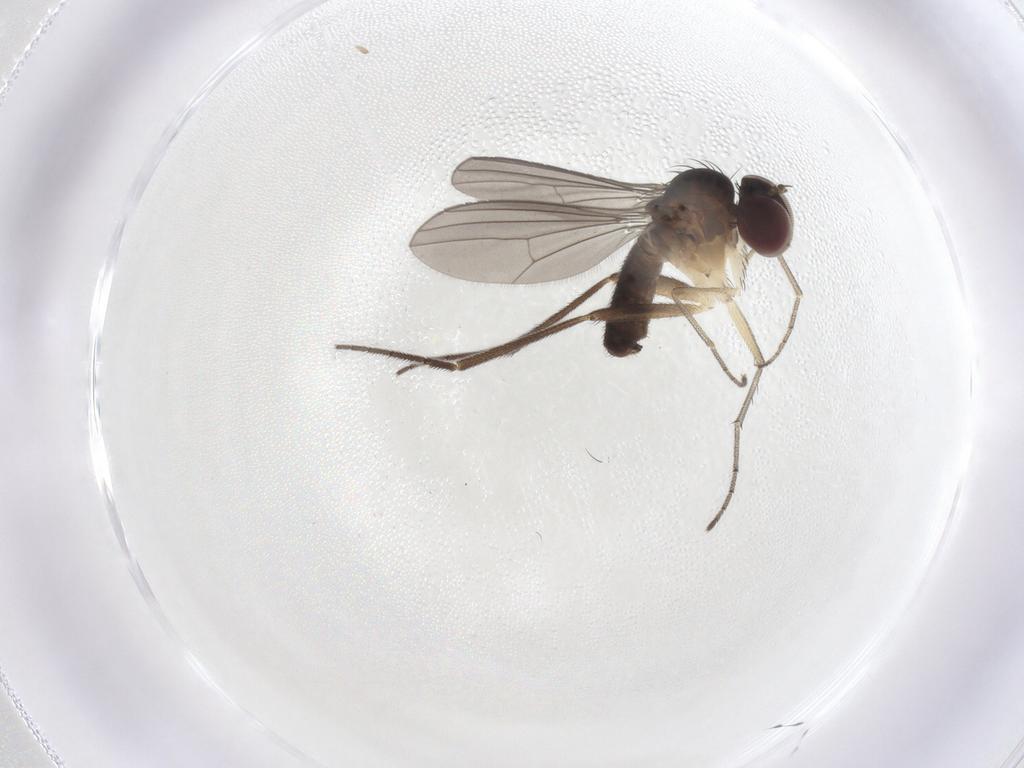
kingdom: Animalia
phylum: Arthropoda
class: Insecta
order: Diptera
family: Dolichopodidae
